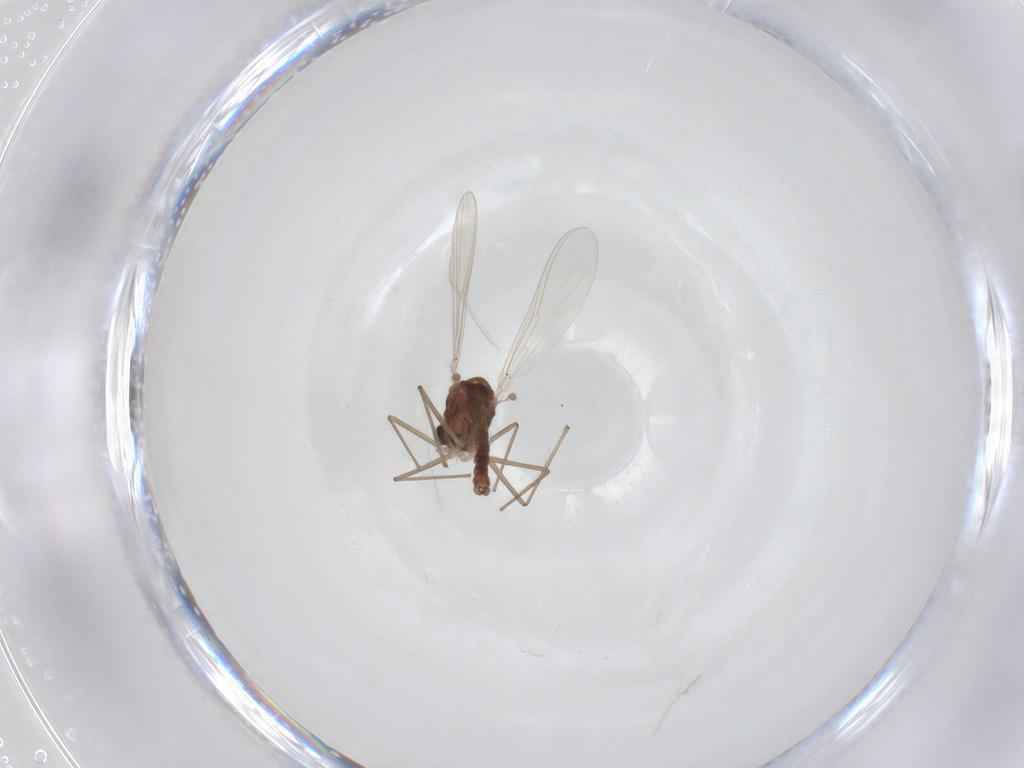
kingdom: Animalia
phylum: Arthropoda
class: Insecta
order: Diptera
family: Chironomidae
